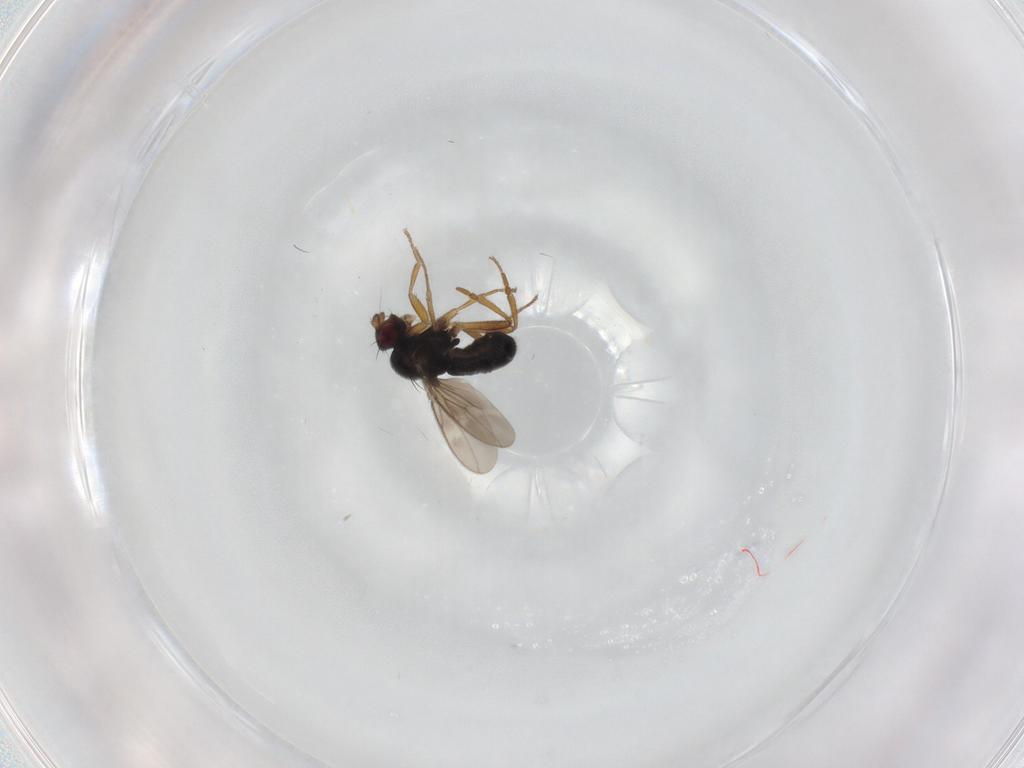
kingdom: Animalia
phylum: Arthropoda
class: Insecta
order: Diptera
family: Sphaeroceridae
